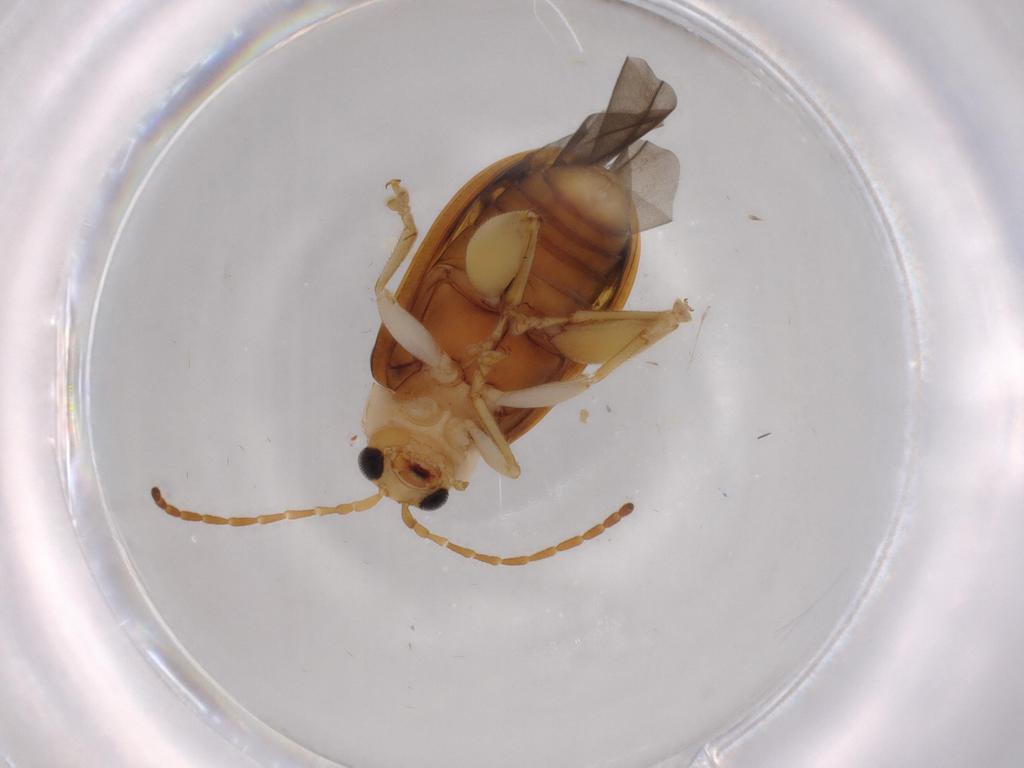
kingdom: Animalia
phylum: Arthropoda
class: Insecta
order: Coleoptera
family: Chrysomelidae
